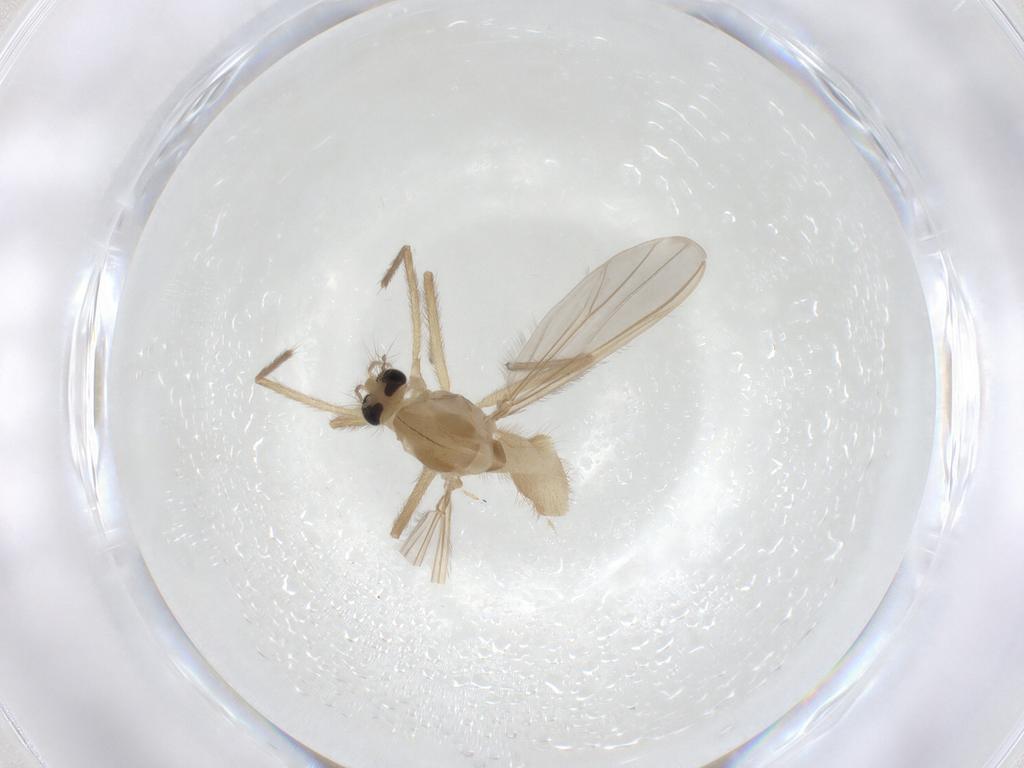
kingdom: Animalia
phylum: Arthropoda
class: Insecta
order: Diptera
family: Chironomidae
